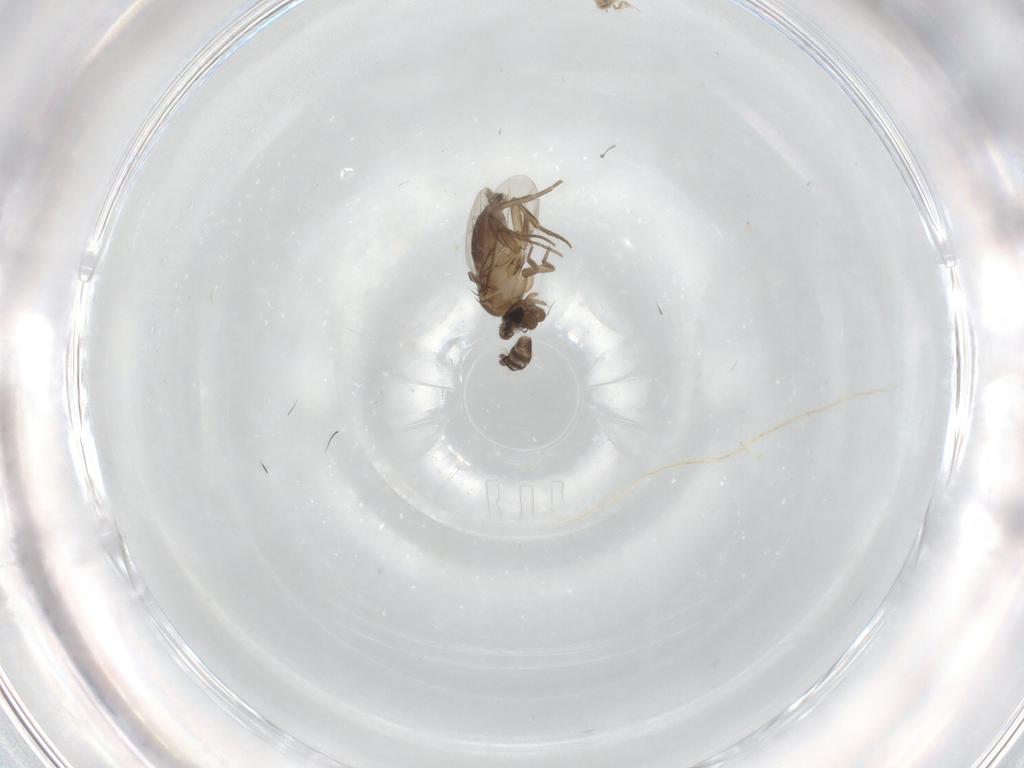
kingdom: Animalia
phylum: Arthropoda
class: Insecta
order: Diptera
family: Phoridae
